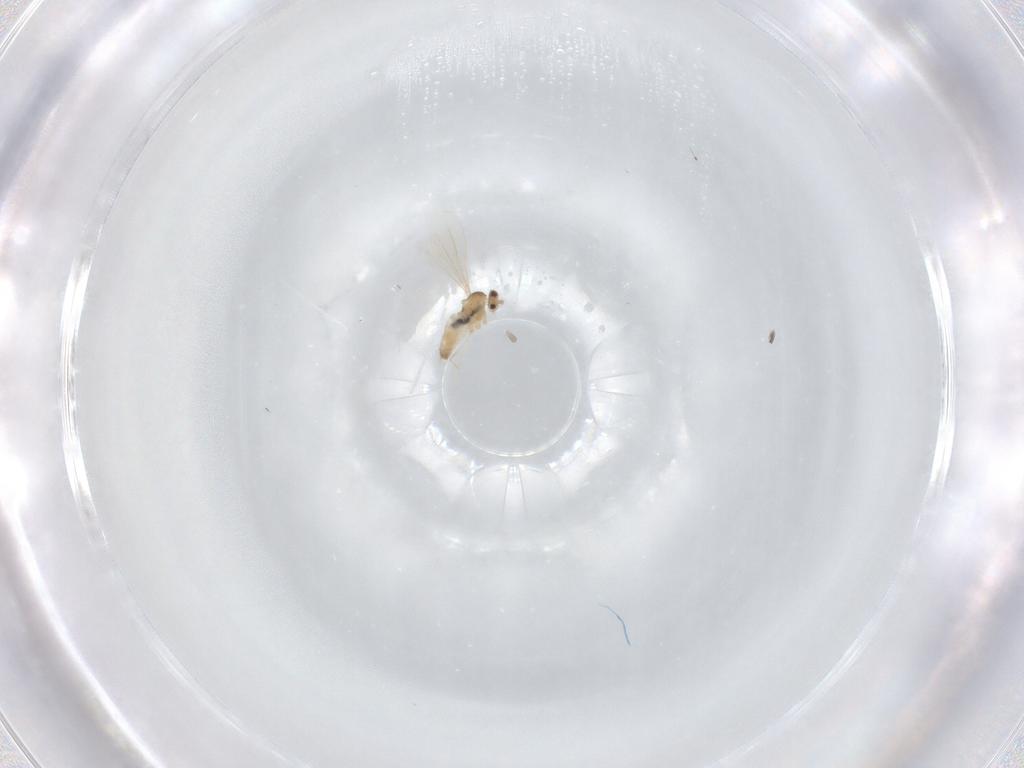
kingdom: Animalia
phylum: Arthropoda
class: Insecta
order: Diptera
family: Cecidomyiidae
